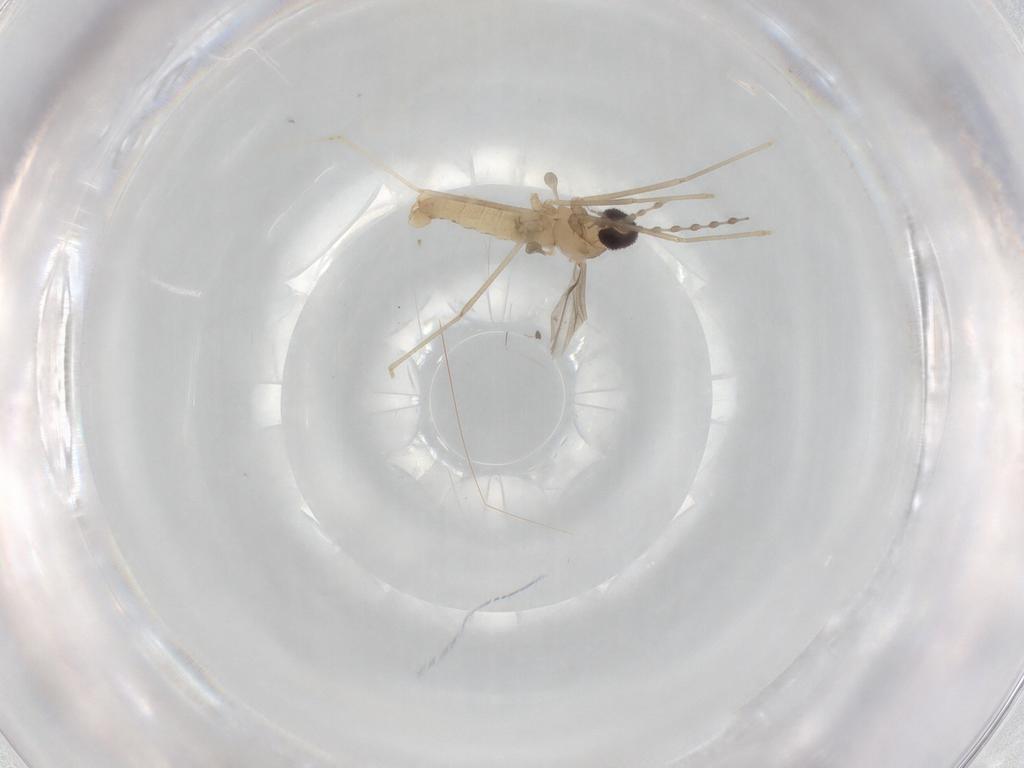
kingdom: Animalia
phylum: Arthropoda
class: Insecta
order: Diptera
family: Cecidomyiidae
